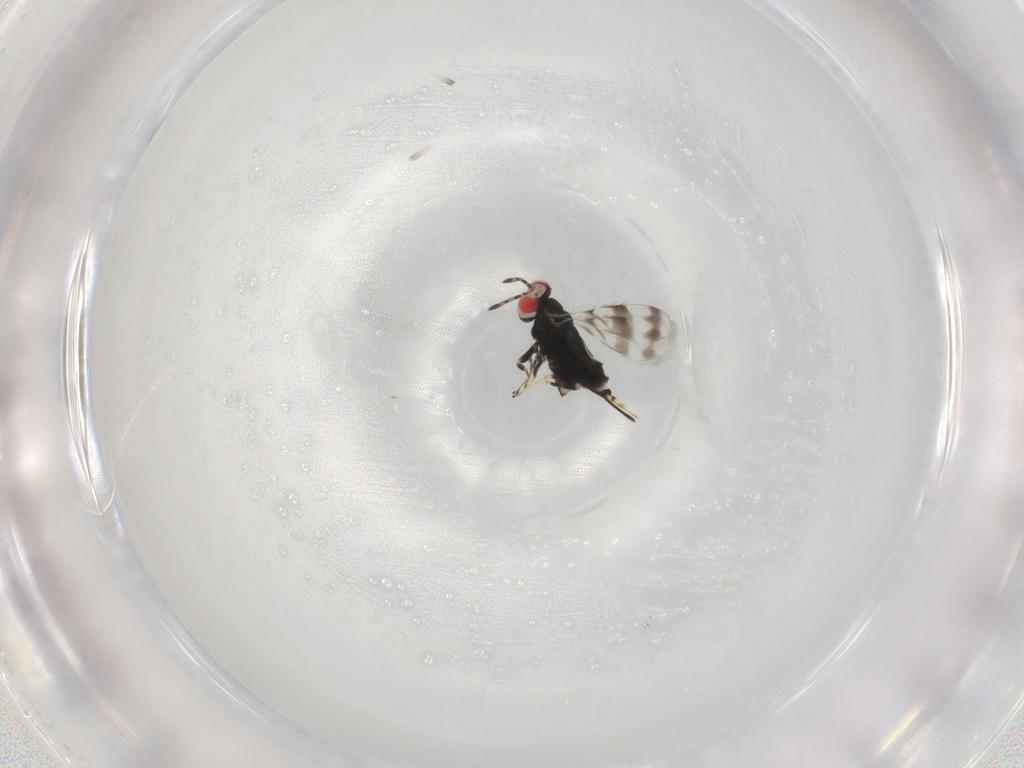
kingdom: Animalia
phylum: Arthropoda
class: Insecta
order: Hymenoptera
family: Azotidae
